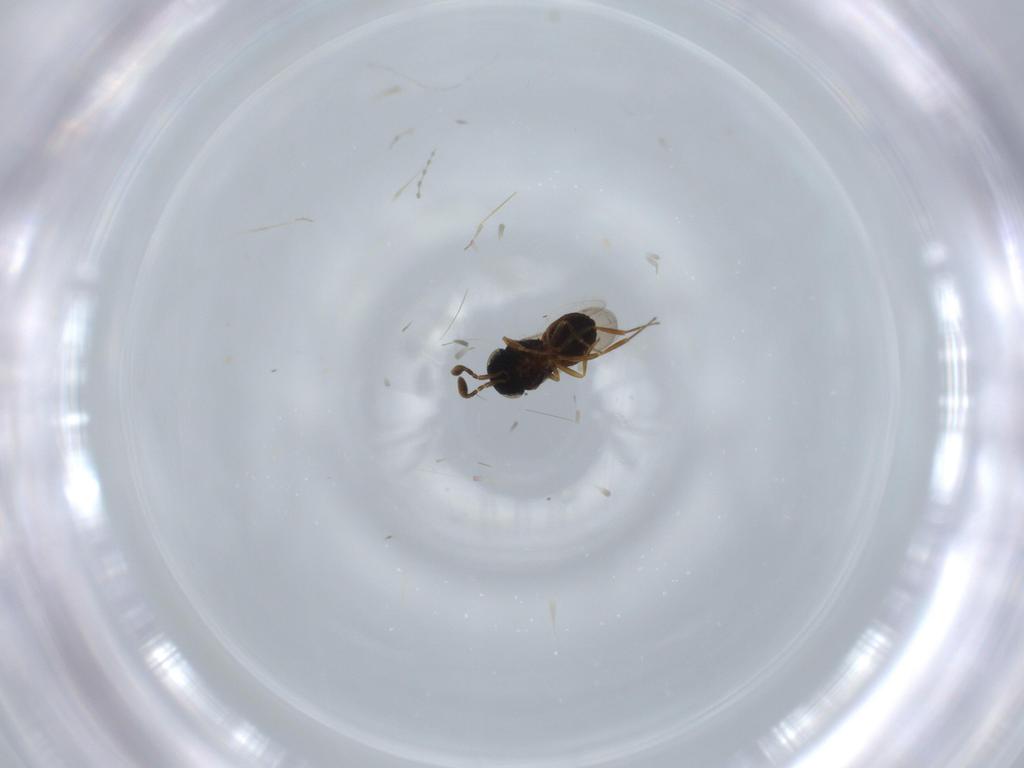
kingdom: Animalia
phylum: Arthropoda
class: Insecta
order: Coleoptera
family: Curculionidae
